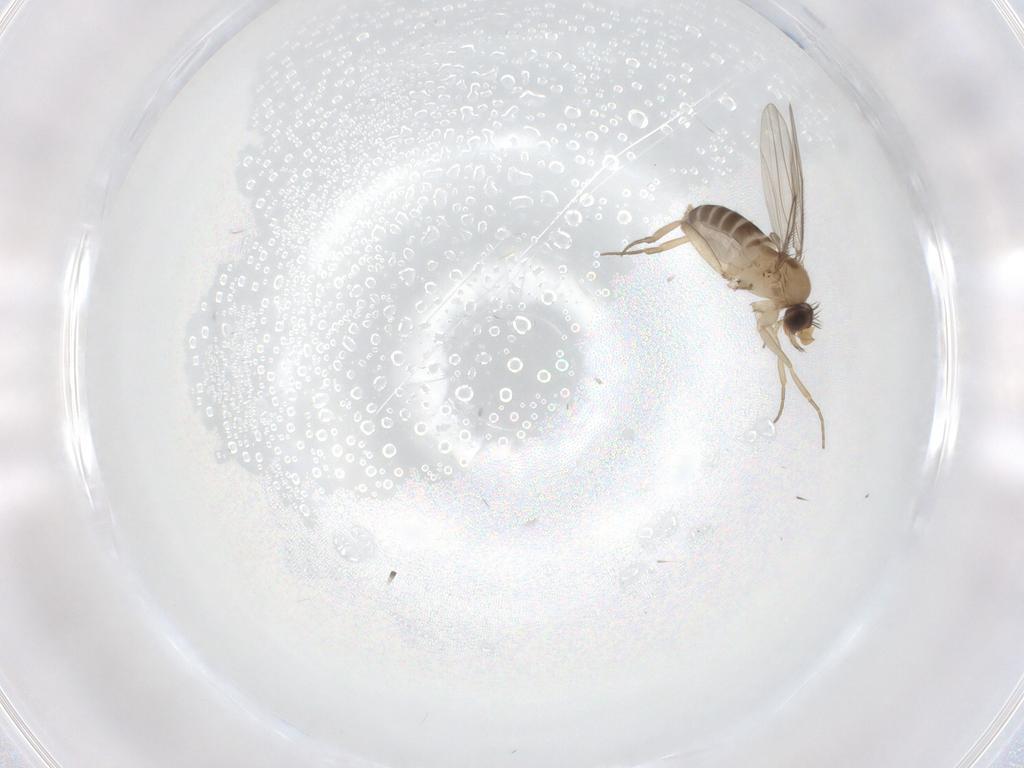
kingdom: Animalia
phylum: Arthropoda
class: Insecta
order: Diptera
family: Phoridae
